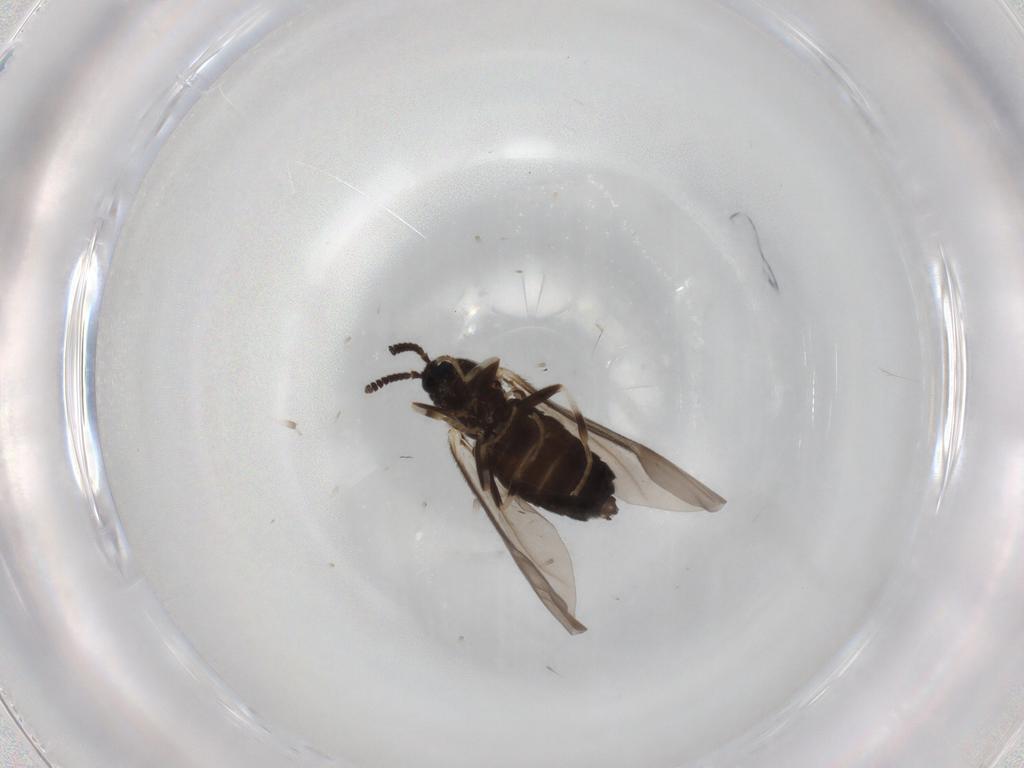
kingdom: Animalia
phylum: Arthropoda
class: Insecta
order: Diptera
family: Scatopsidae
